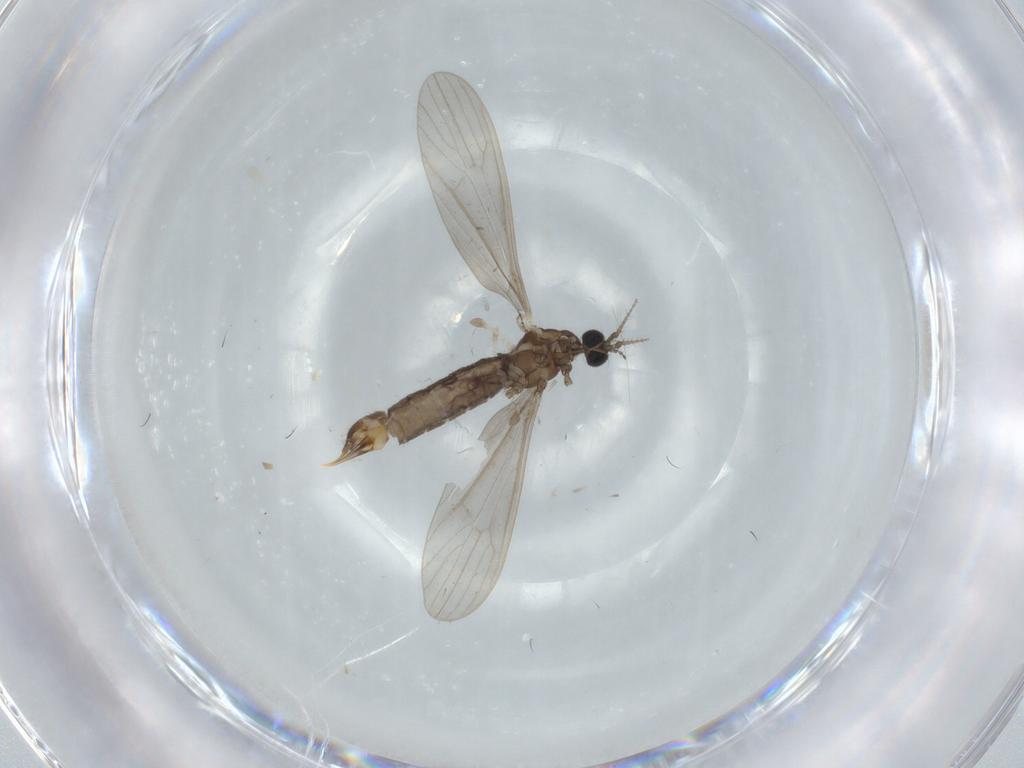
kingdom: Animalia
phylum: Arthropoda
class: Insecta
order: Diptera
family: Limoniidae
